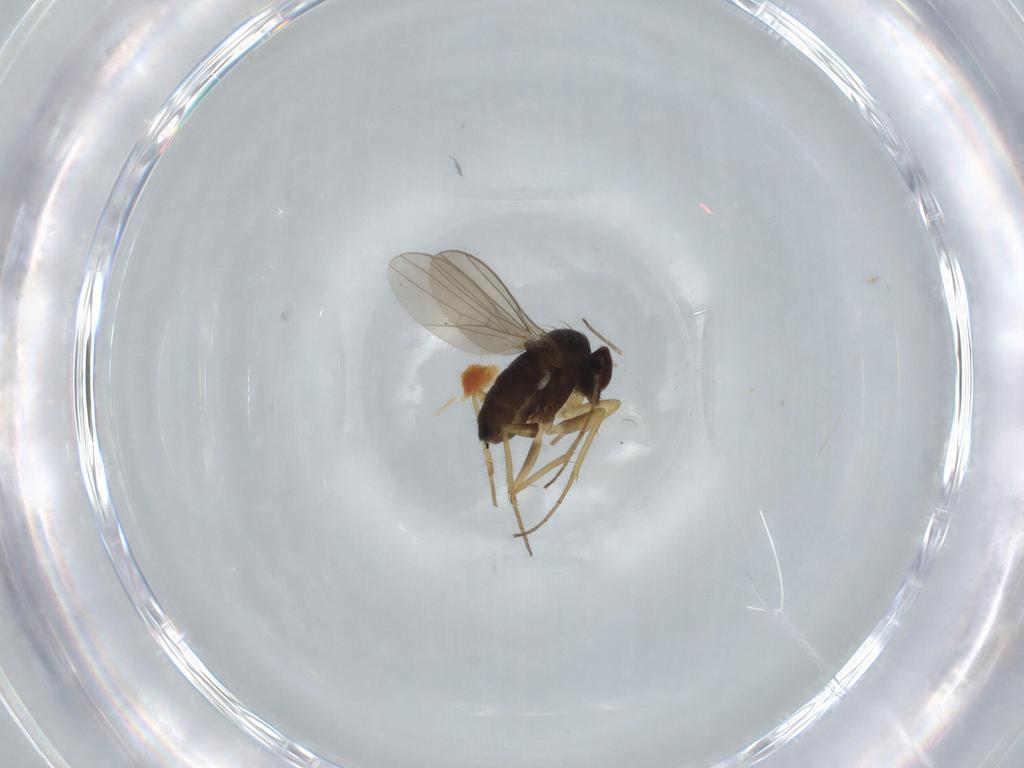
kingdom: Animalia
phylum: Arthropoda
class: Insecta
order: Diptera
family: Dolichopodidae
